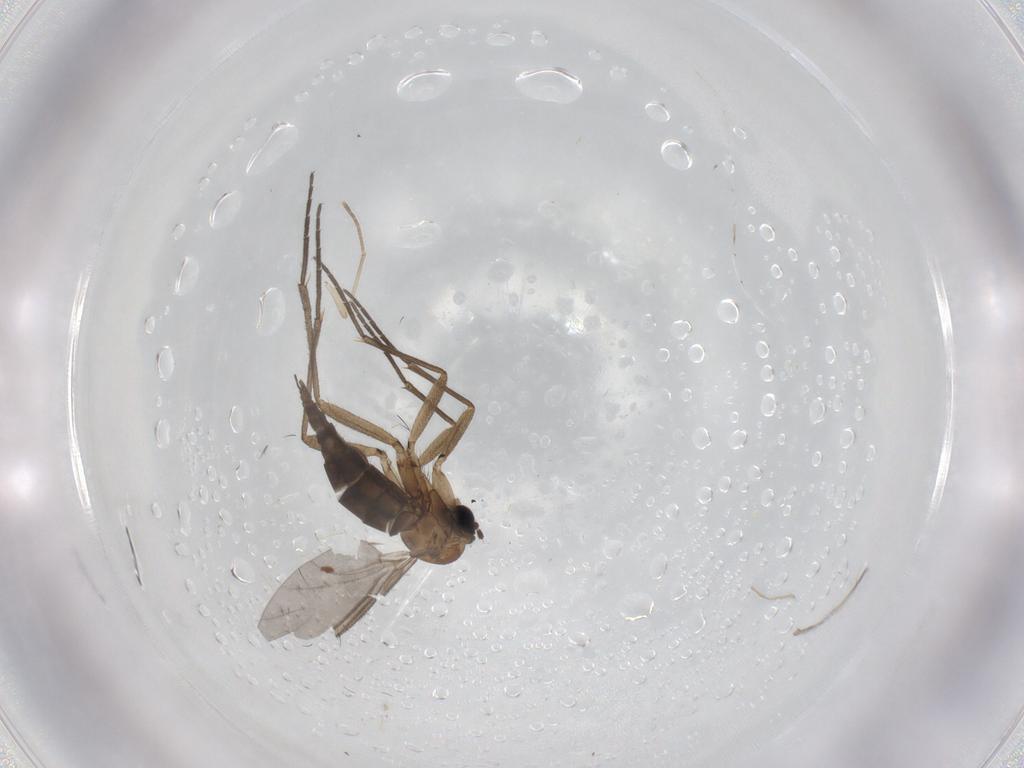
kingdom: Animalia
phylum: Arthropoda
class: Insecta
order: Diptera
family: Sciaridae
